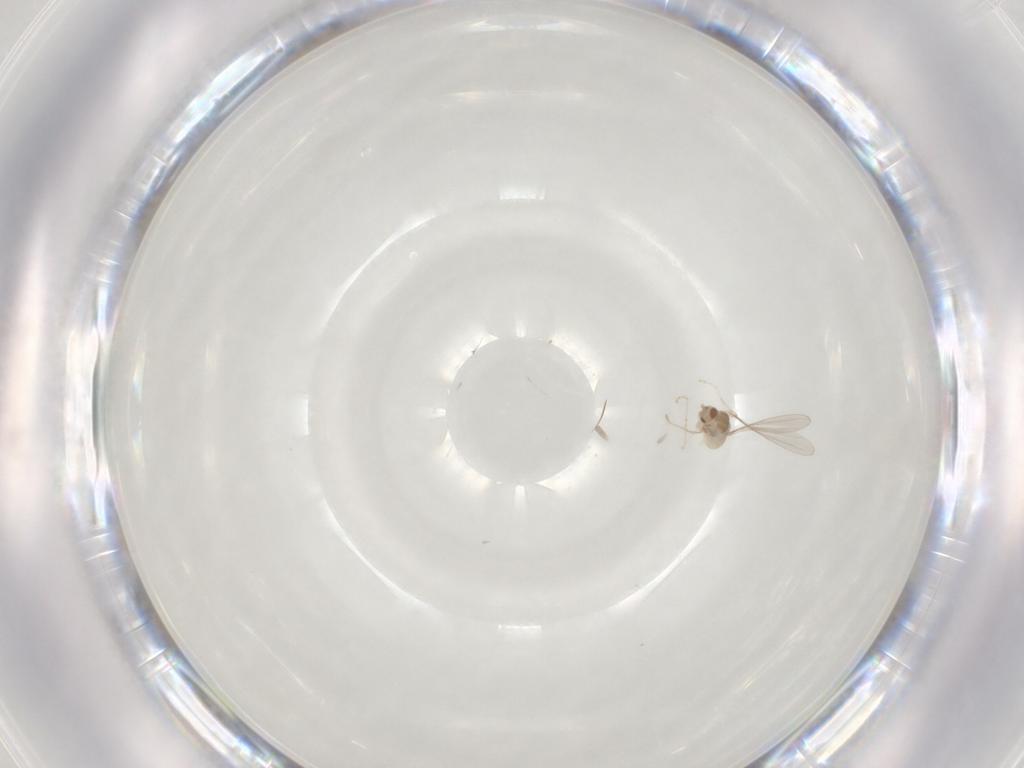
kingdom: Animalia
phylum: Arthropoda
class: Insecta
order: Diptera
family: Cecidomyiidae
